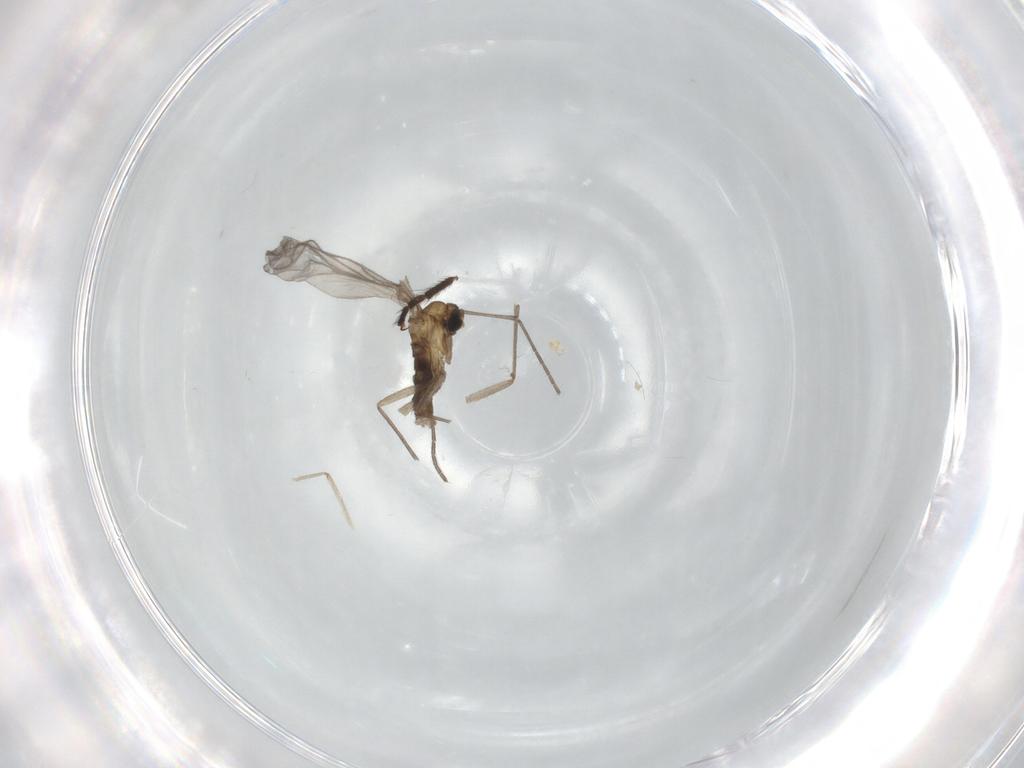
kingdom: Animalia
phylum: Arthropoda
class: Insecta
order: Diptera
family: Sciaridae
